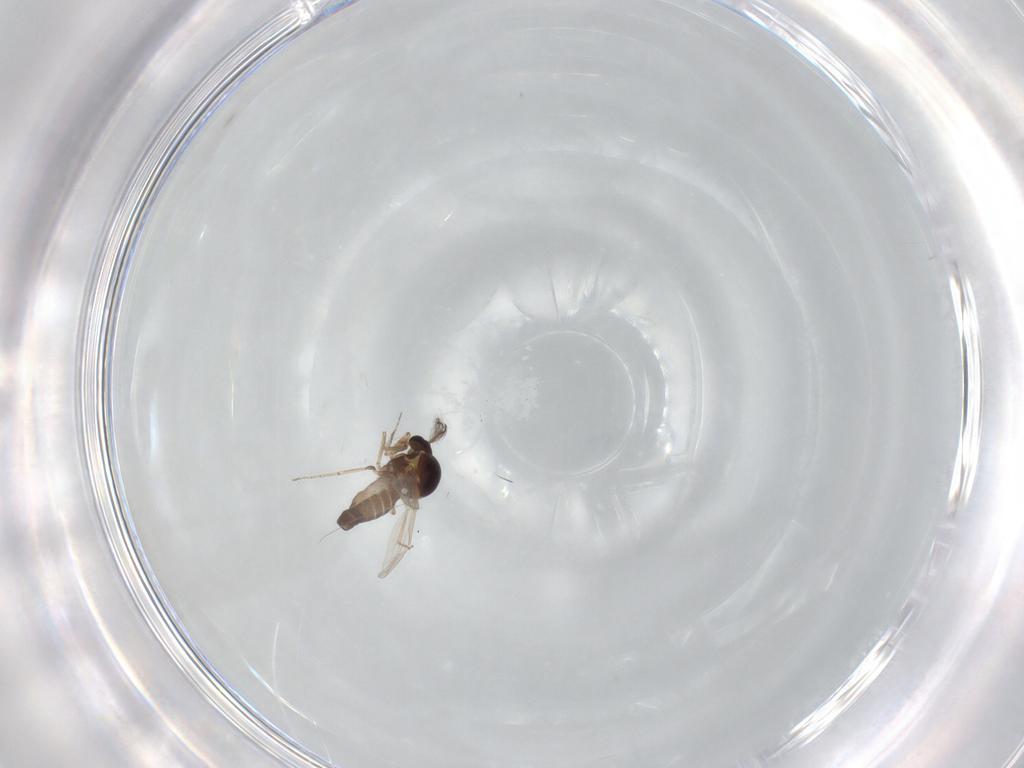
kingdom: Animalia
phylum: Arthropoda
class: Insecta
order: Diptera
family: Ceratopogonidae
